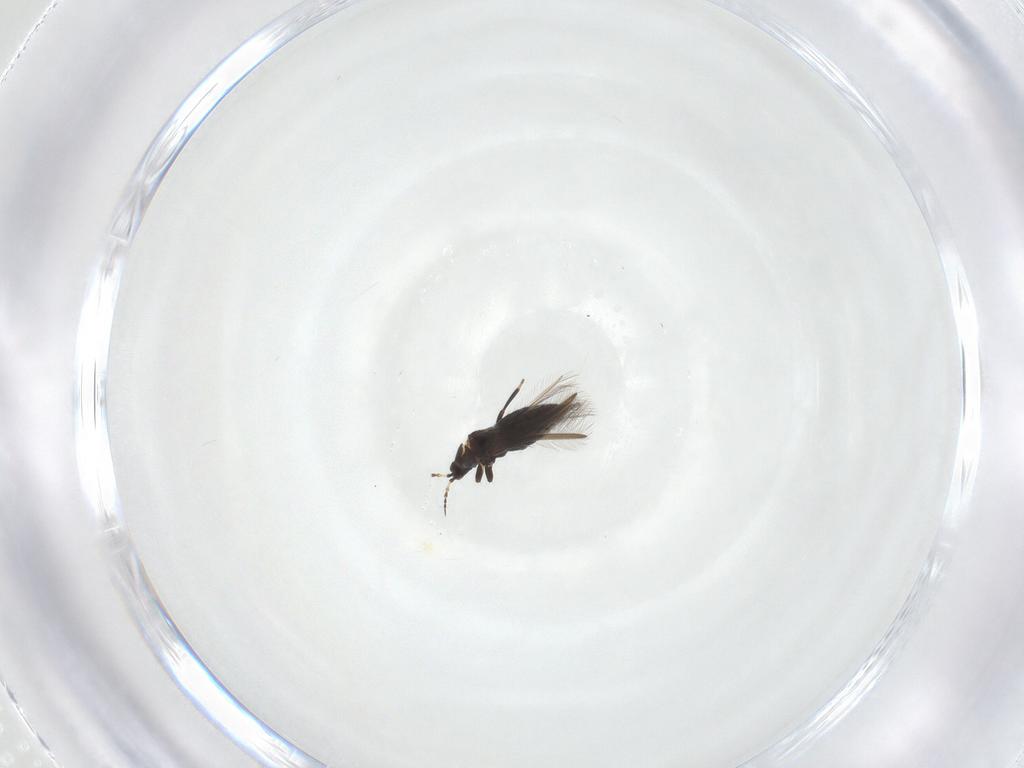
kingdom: Animalia
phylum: Arthropoda
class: Insecta
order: Thysanoptera
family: Heterothripidae
